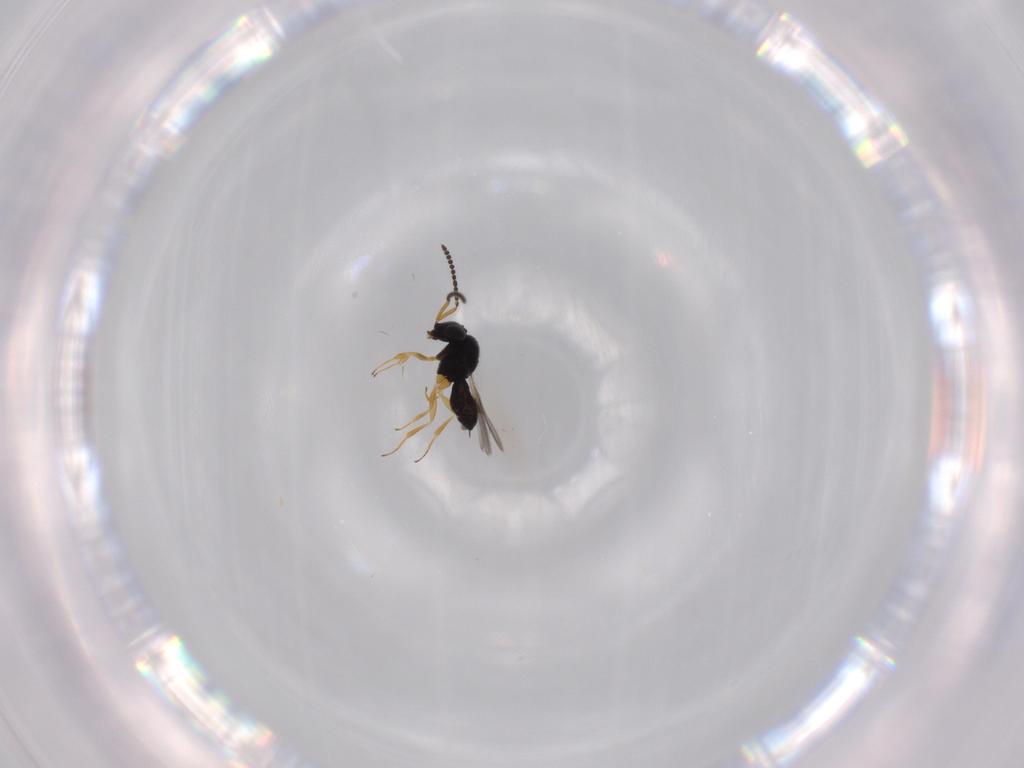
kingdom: Animalia
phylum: Arthropoda
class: Insecta
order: Hymenoptera
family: Scelionidae
